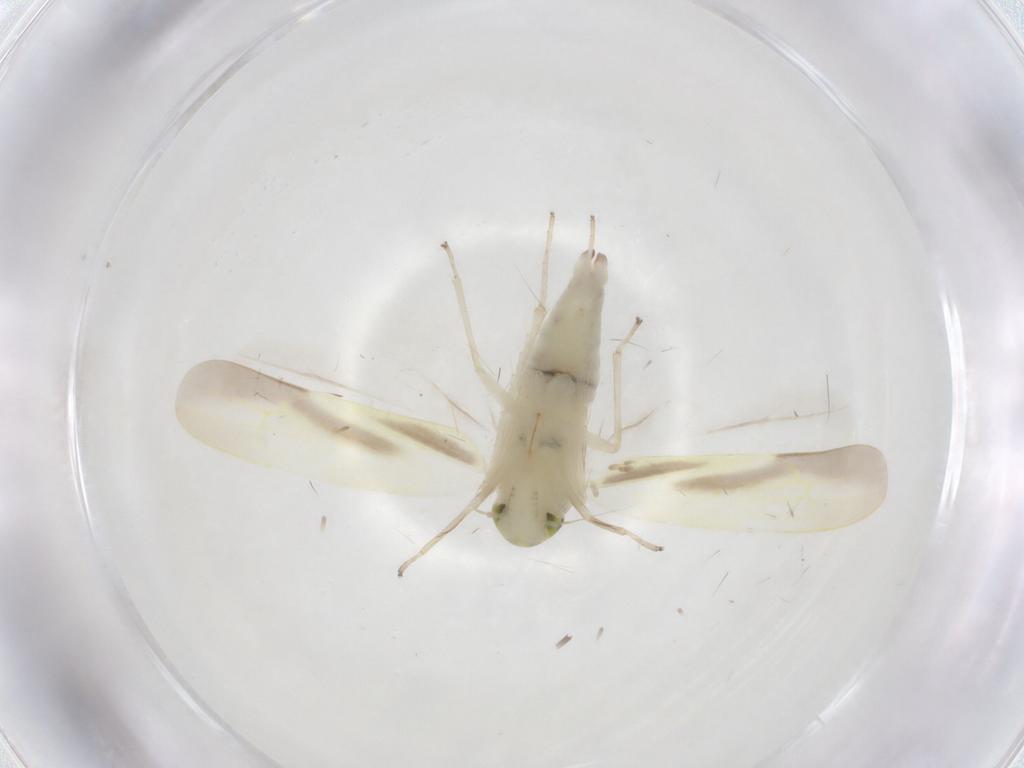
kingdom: Animalia
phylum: Arthropoda
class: Insecta
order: Hemiptera
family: Cicadellidae
